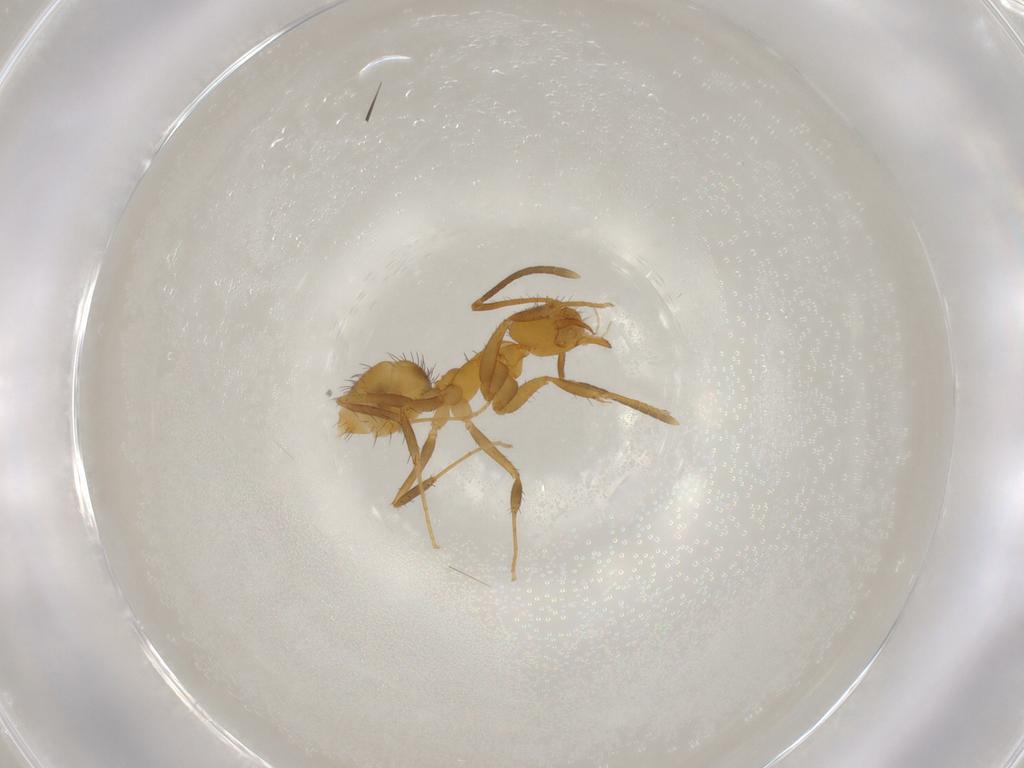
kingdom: Animalia
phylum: Arthropoda
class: Insecta
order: Hymenoptera
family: Formicidae
